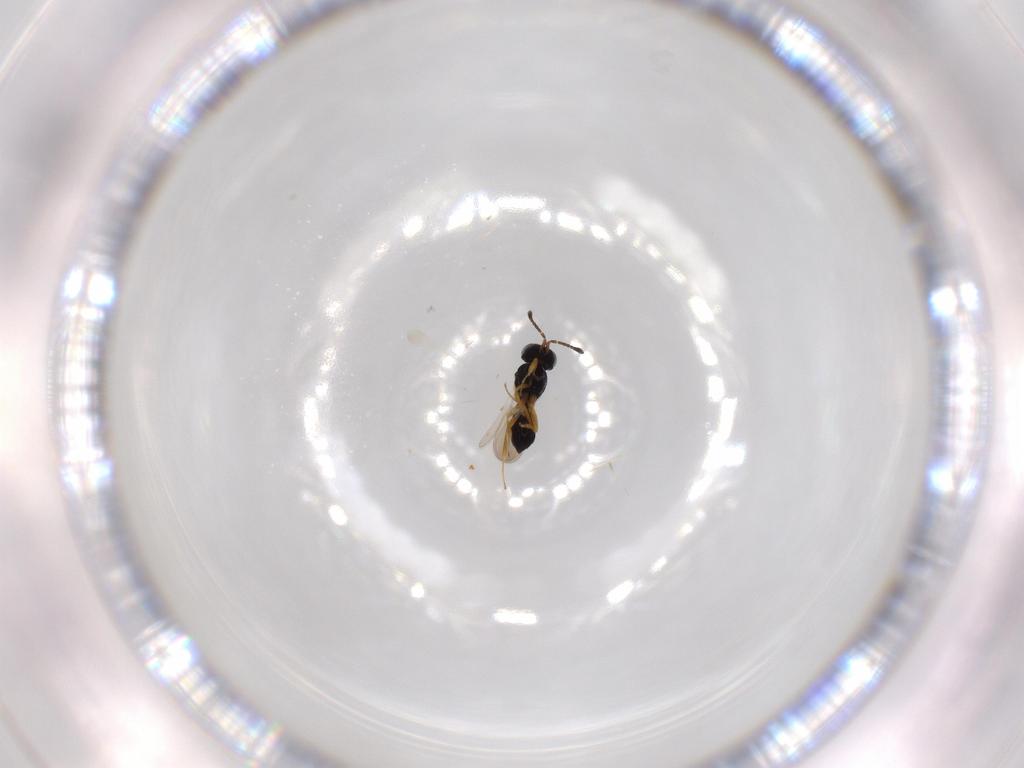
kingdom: Animalia
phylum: Arthropoda
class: Insecta
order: Hymenoptera
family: Scelionidae
